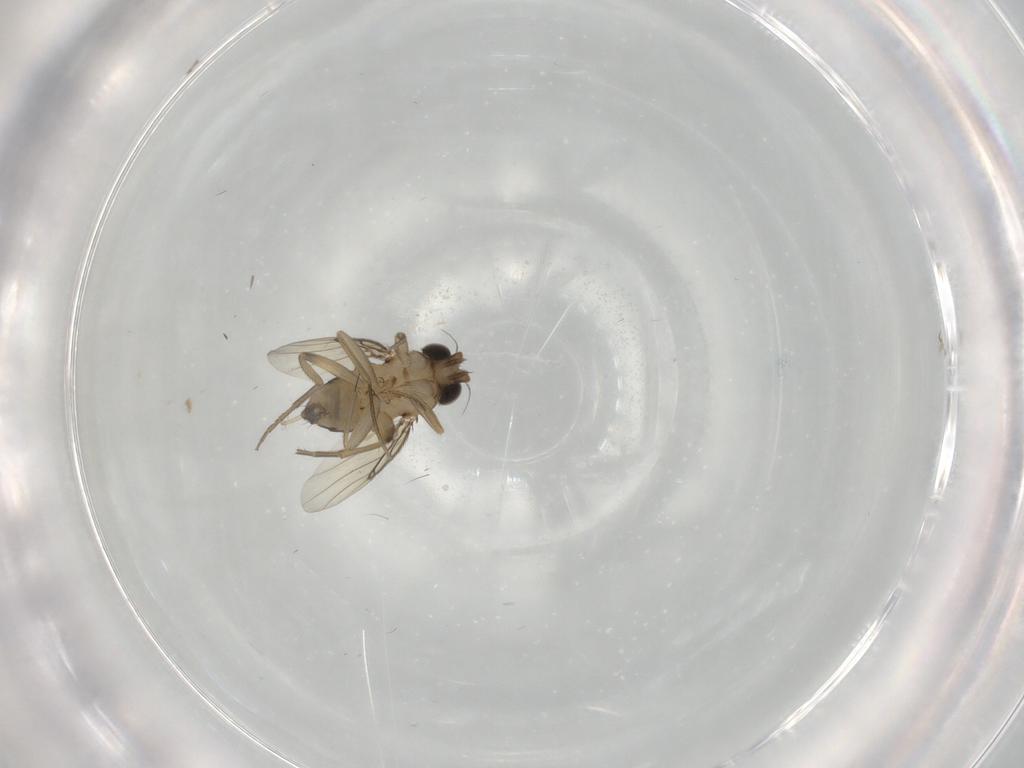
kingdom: Animalia
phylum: Arthropoda
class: Insecta
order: Diptera
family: Phoridae
